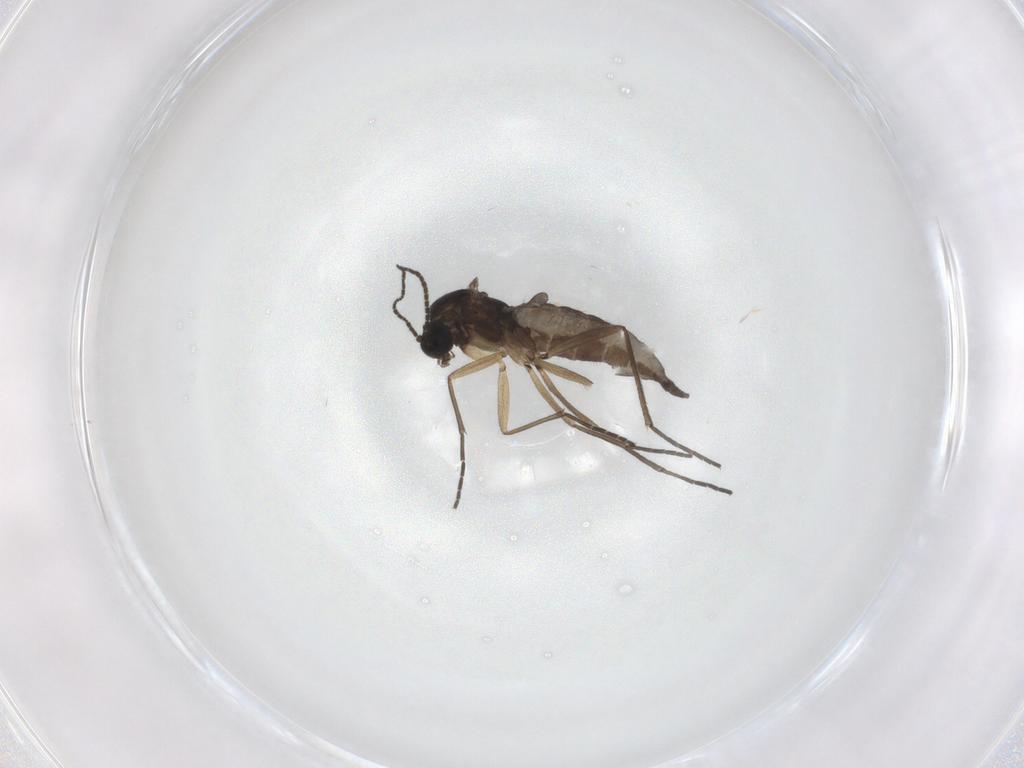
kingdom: Animalia
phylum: Arthropoda
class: Insecta
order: Diptera
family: Sciaridae
